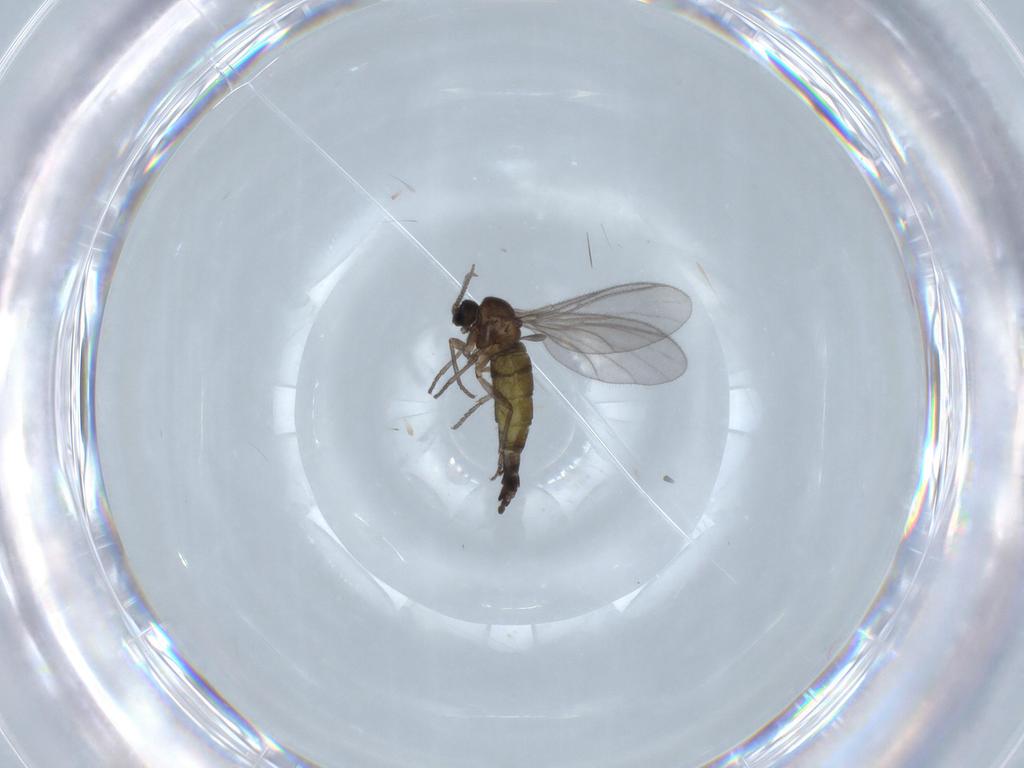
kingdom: Animalia
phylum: Arthropoda
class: Insecta
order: Diptera
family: Sciaridae
